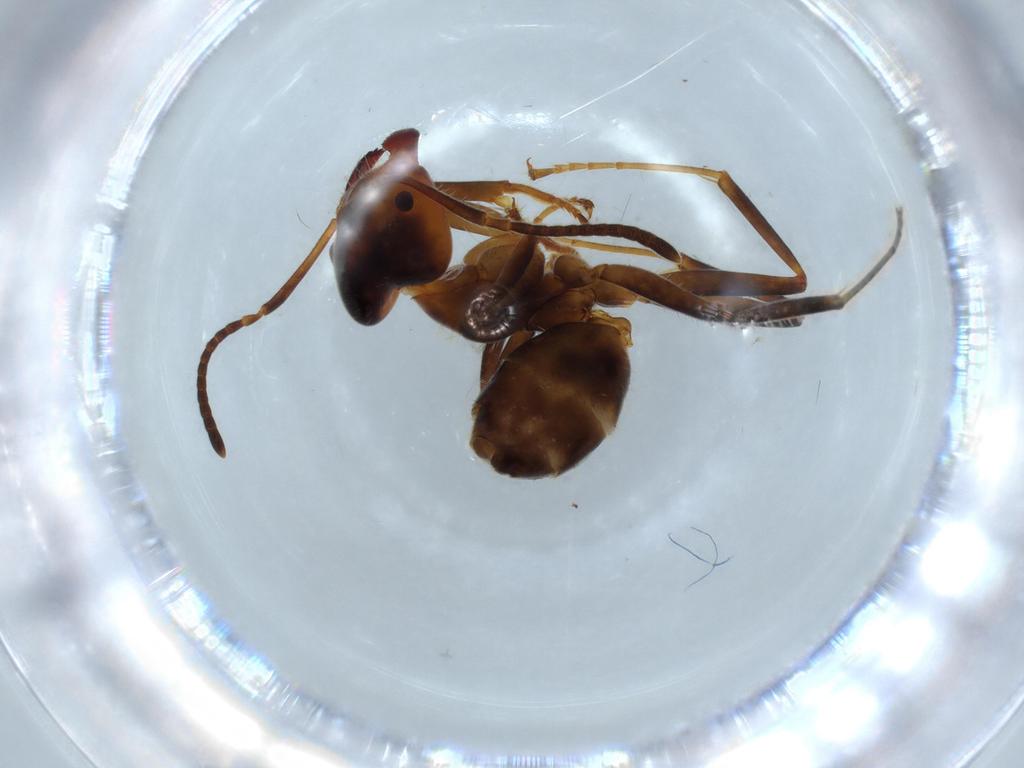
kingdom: Animalia
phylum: Arthropoda
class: Insecta
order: Hymenoptera
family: Formicidae
